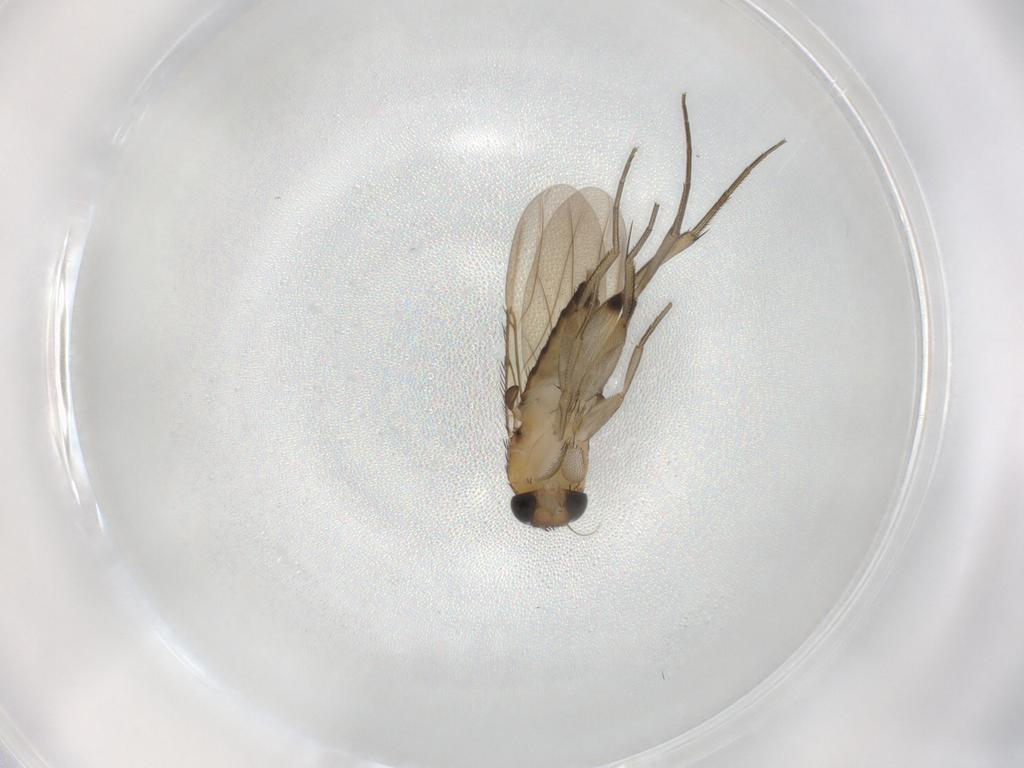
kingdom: Animalia
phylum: Arthropoda
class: Insecta
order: Diptera
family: Phoridae
